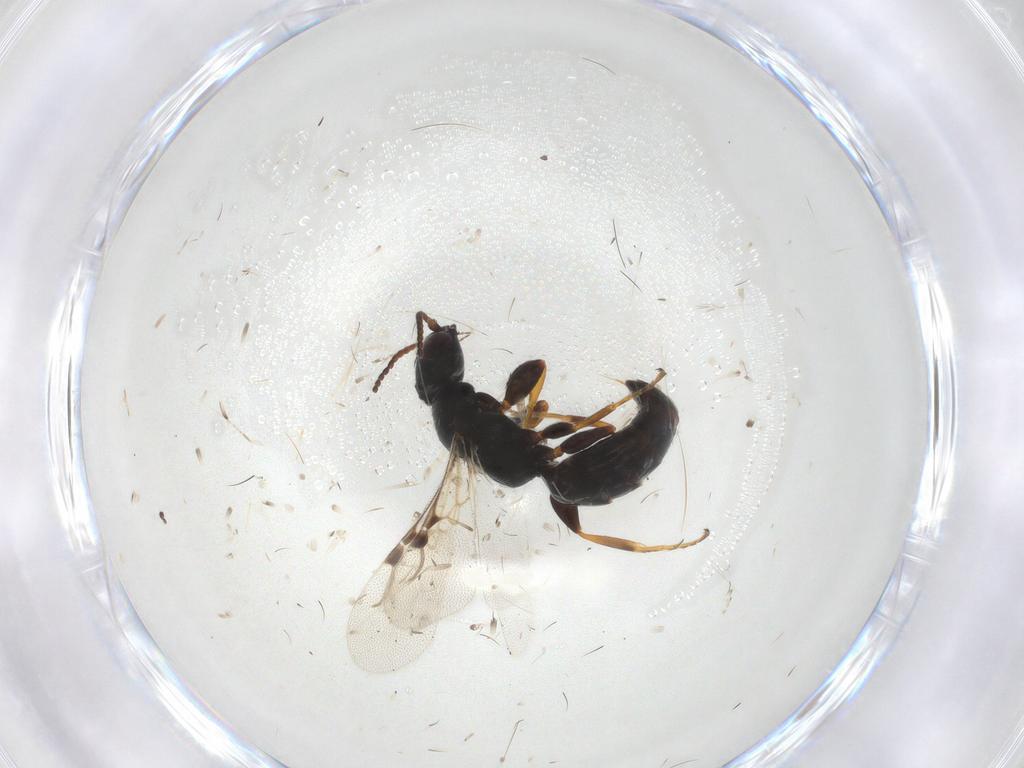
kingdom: Animalia
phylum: Arthropoda
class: Insecta
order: Hymenoptera
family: Bethylidae
